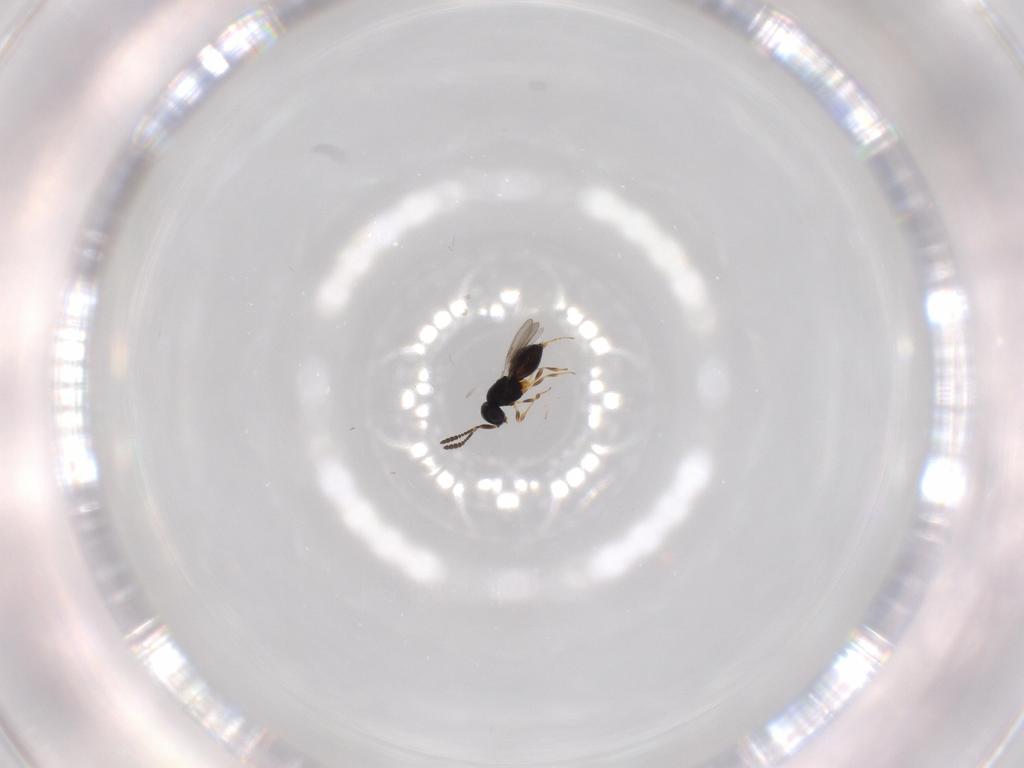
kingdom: Animalia
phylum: Arthropoda
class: Insecta
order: Hymenoptera
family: Scelionidae
